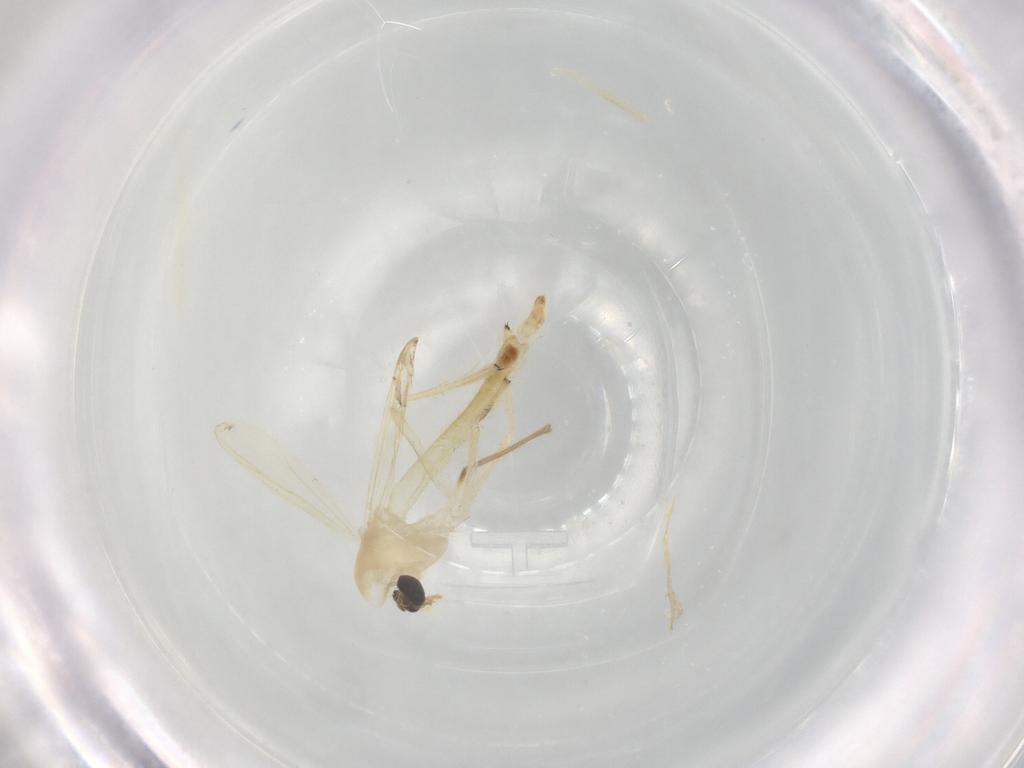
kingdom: Animalia
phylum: Arthropoda
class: Insecta
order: Diptera
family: Chironomidae
